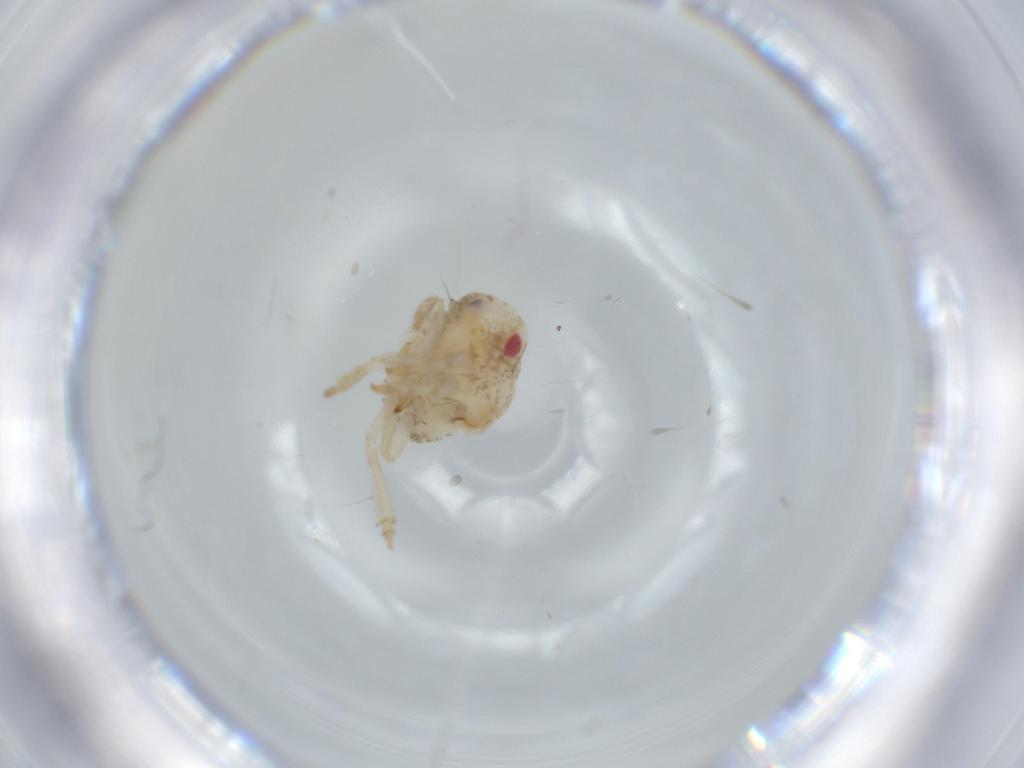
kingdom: Animalia
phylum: Arthropoda
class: Insecta
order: Hemiptera
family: Acanaloniidae
